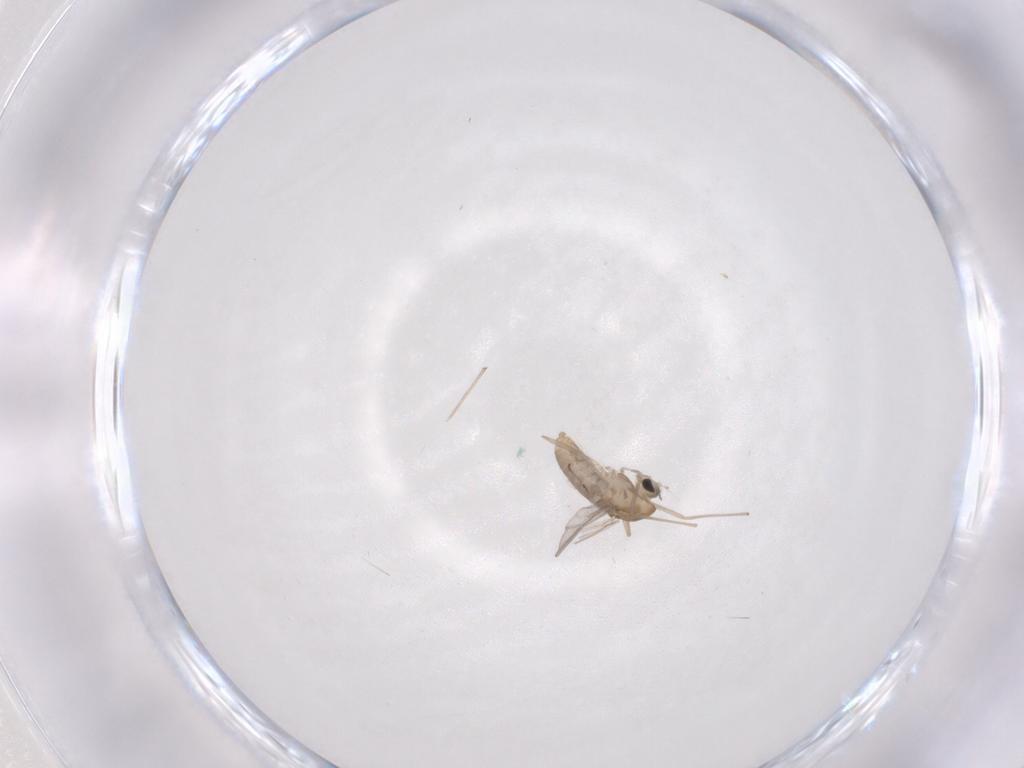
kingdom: Animalia
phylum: Arthropoda
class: Insecta
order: Diptera
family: Chironomidae
